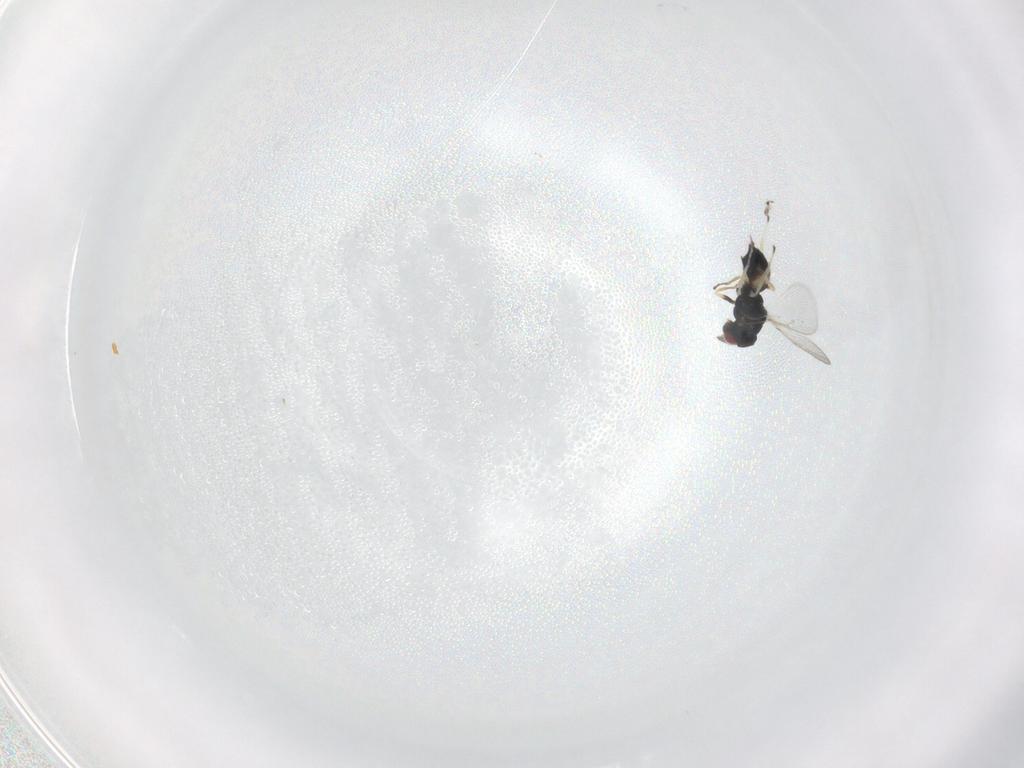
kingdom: Animalia
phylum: Arthropoda
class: Insecta
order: Hymenoptera
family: Eulophidae
